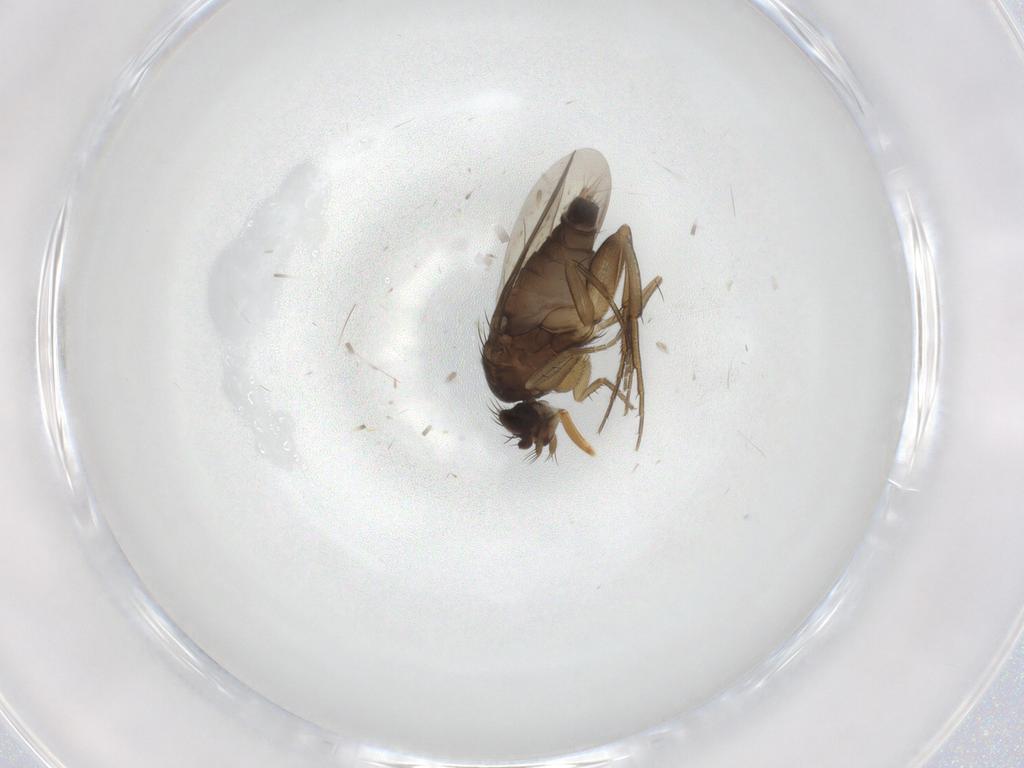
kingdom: Animalia
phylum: Arthropoda
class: Insecta
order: Diptera
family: Phoridae
